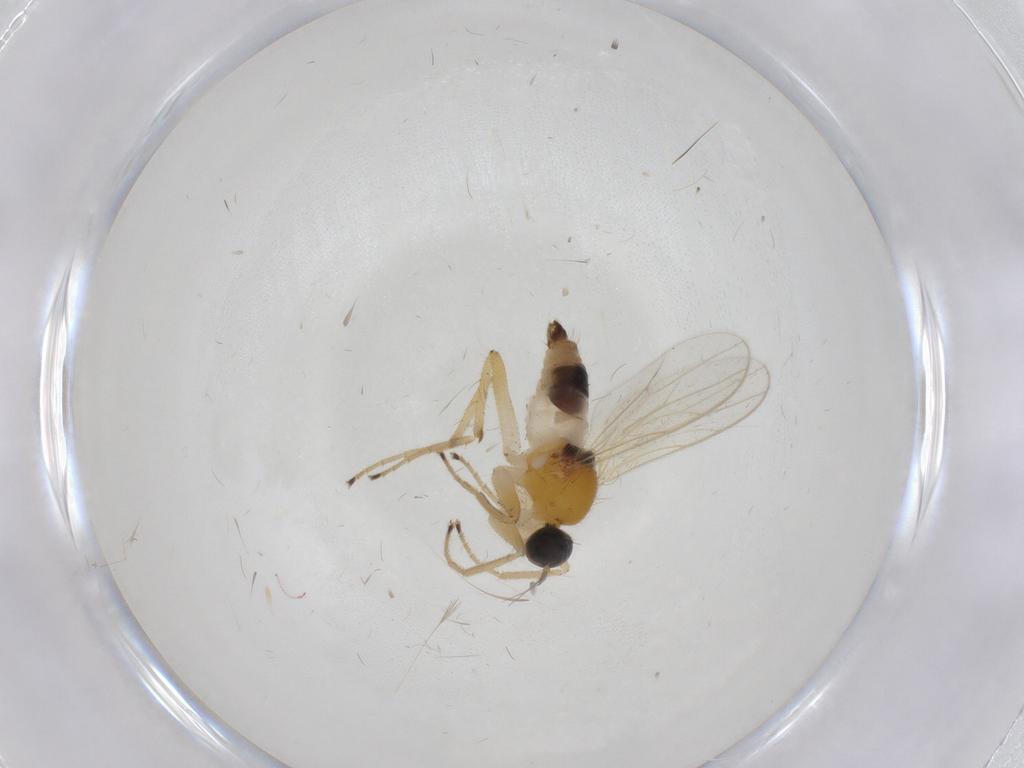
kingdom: Animalia
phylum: Arthropoda
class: Insecta
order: Diptera
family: Hybotidae
